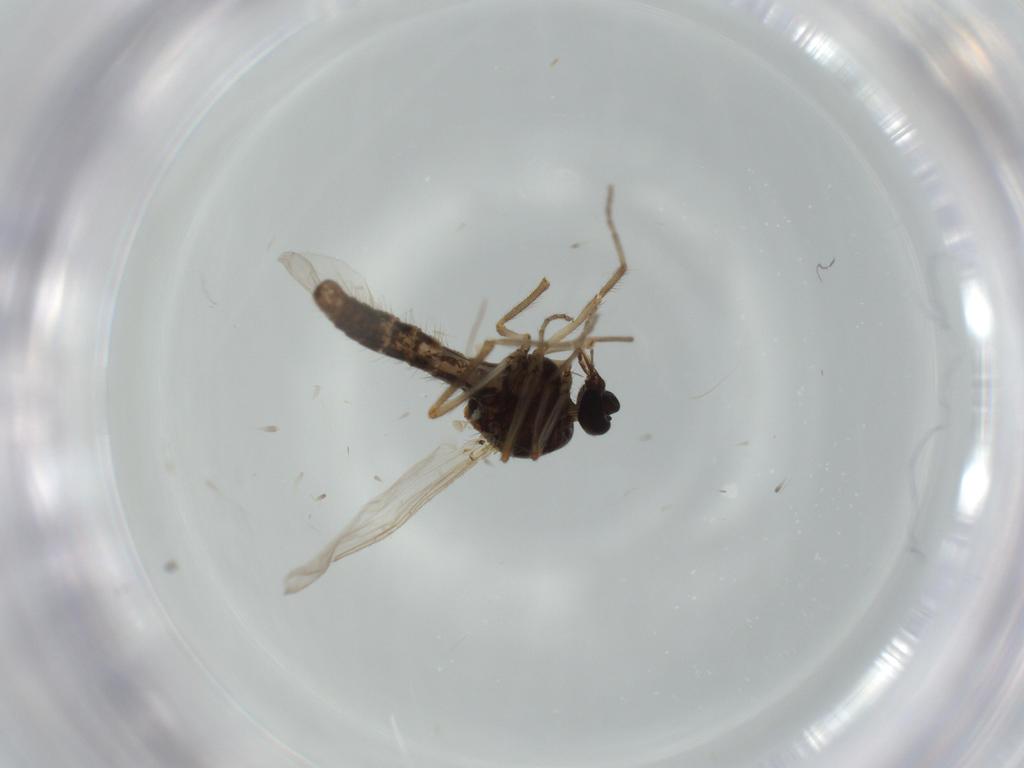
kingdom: Animalia
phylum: Arthropoda
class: Insecta
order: Diptera
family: Ceratopogonidae
